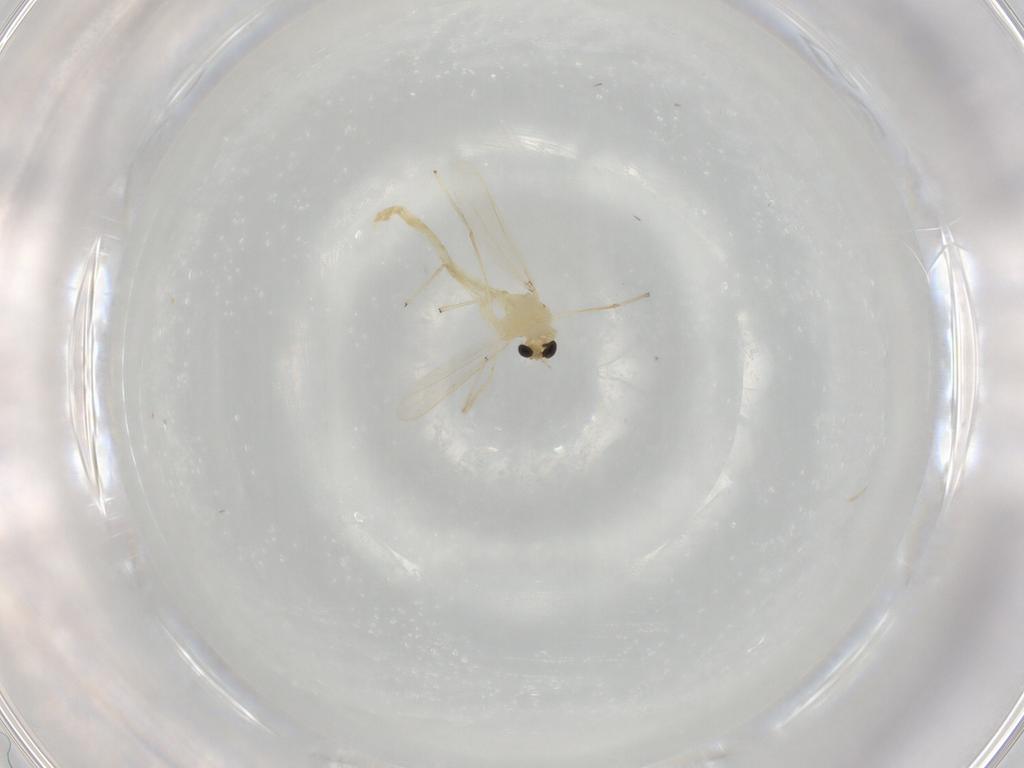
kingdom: Animalia
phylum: Arthropoda
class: Insecta
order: Diptera
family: Chironomidae
